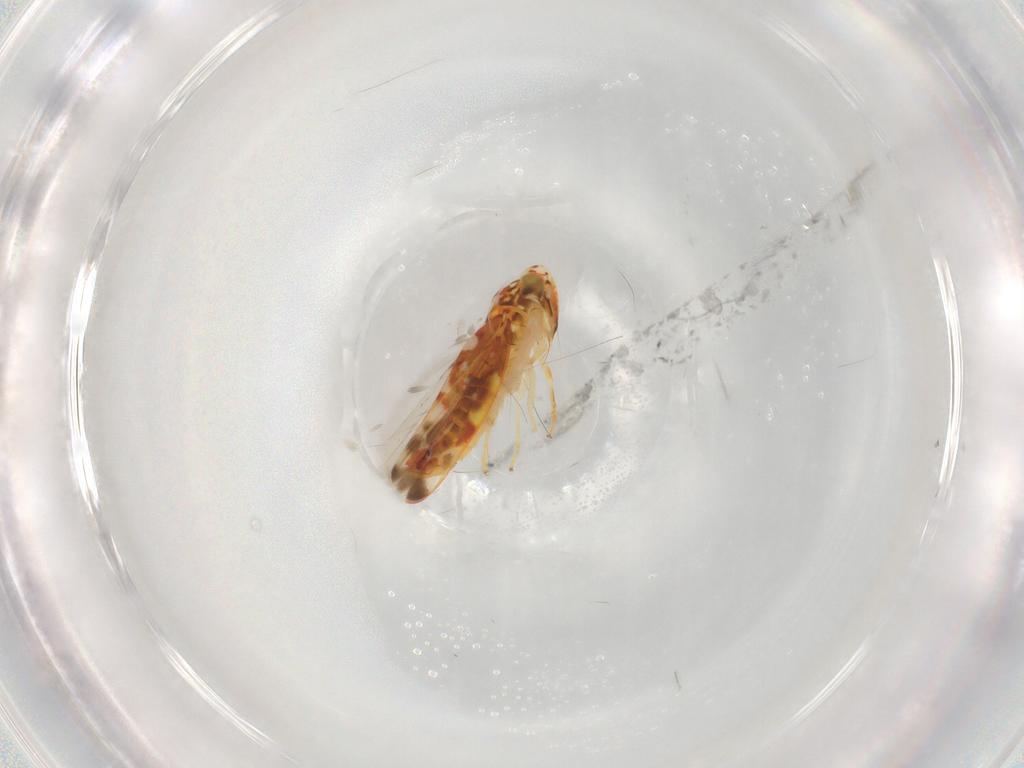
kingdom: Animalia
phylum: Arthropoda
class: Insecta
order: Hemiptera
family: Cicadellidae
